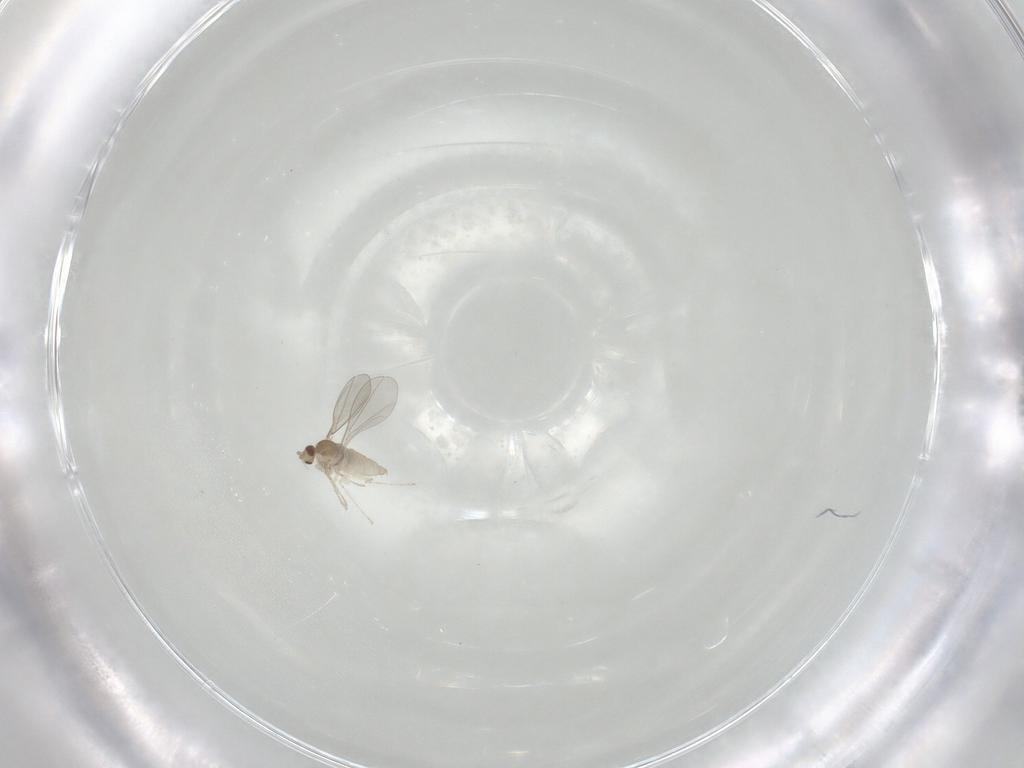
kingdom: Animalia
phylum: Arthropoda
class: Insecta
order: Diptera
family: Cecidomyiidae
